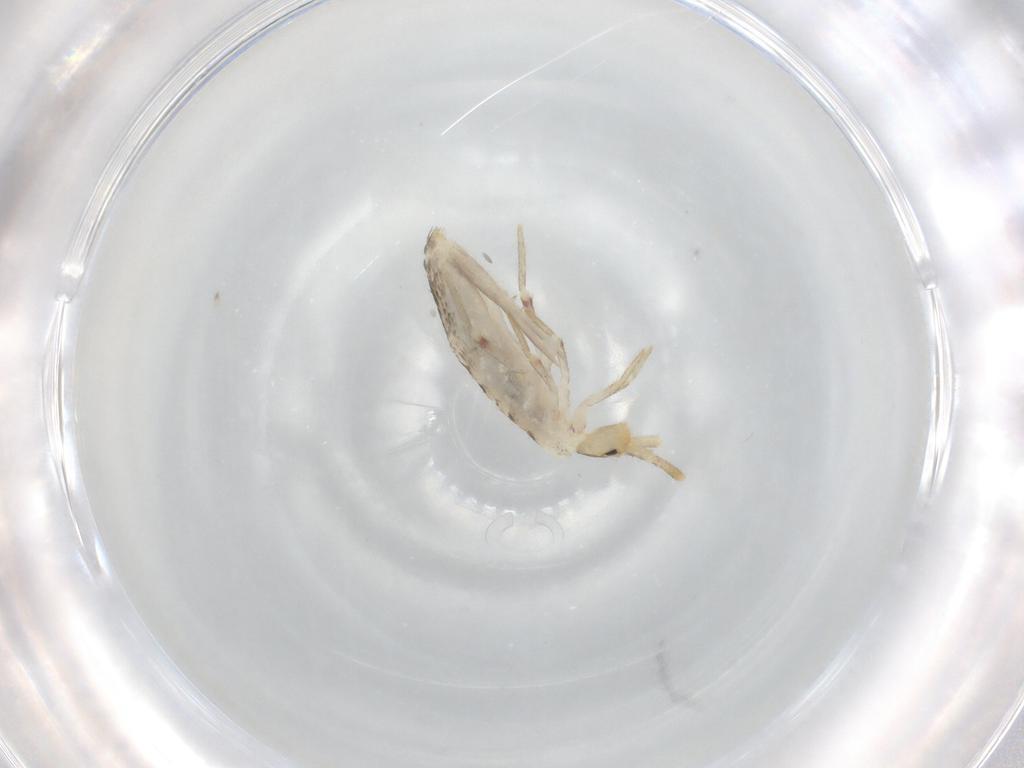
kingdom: Animalia
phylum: Arthropoda
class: Collembola
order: Poduromorpha
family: Hypogastruridae
